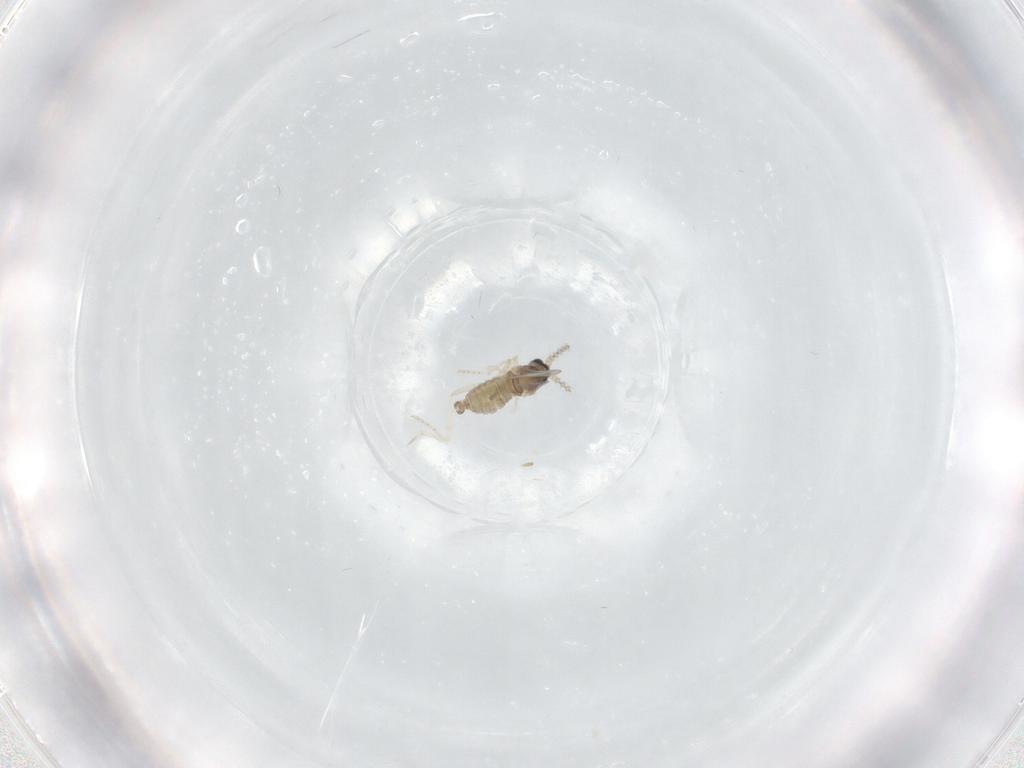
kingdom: Animalia
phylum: Arthropoda
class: Insecta
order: Diptera
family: Cecidomyiidae
